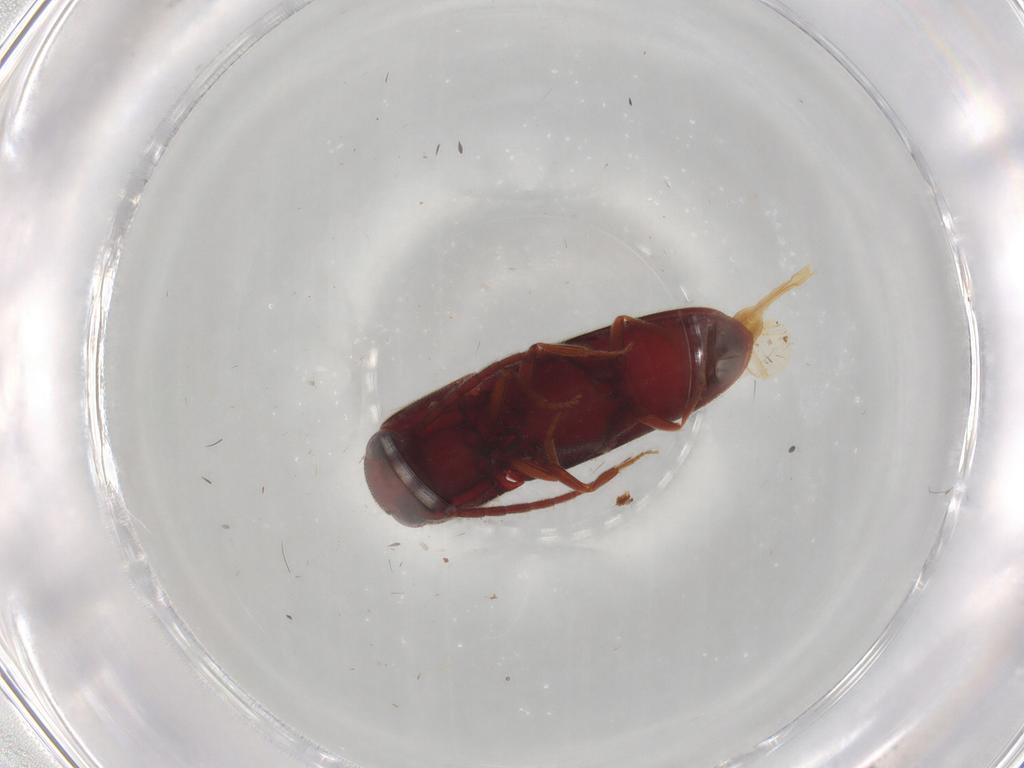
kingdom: Animalia
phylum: Arthropoda
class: Insecta
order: Coleoptera
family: Eucnemidae
